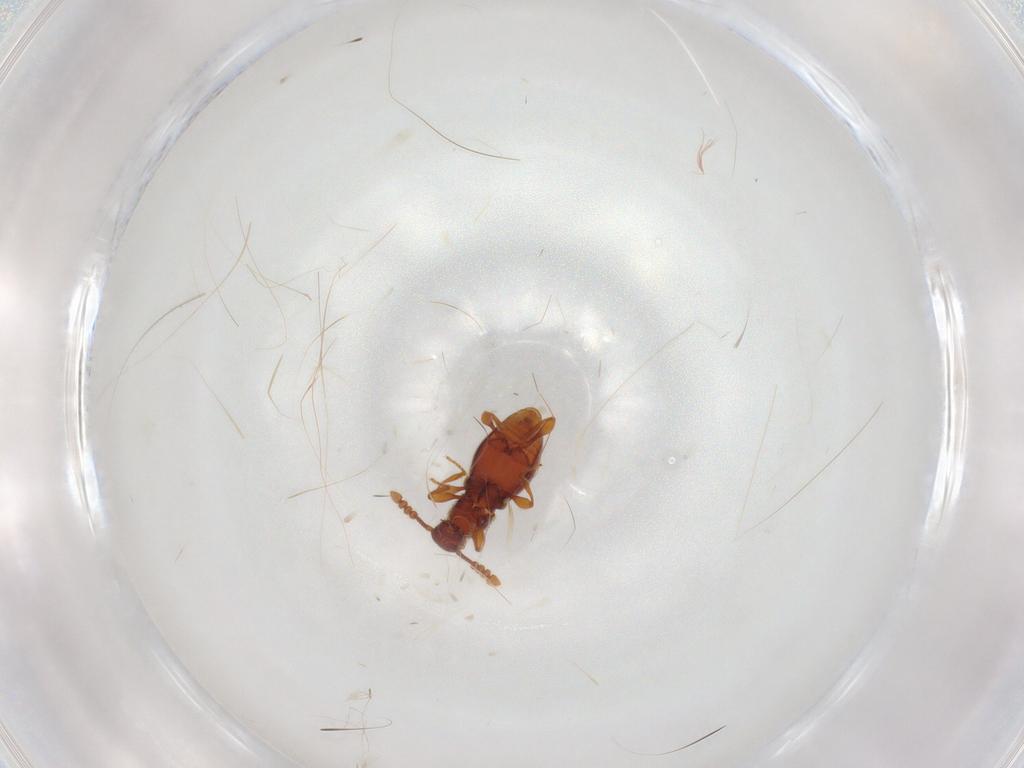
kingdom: Animalia
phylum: Arthropoda
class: Insecta
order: Coleoptera
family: Staphylinidae
